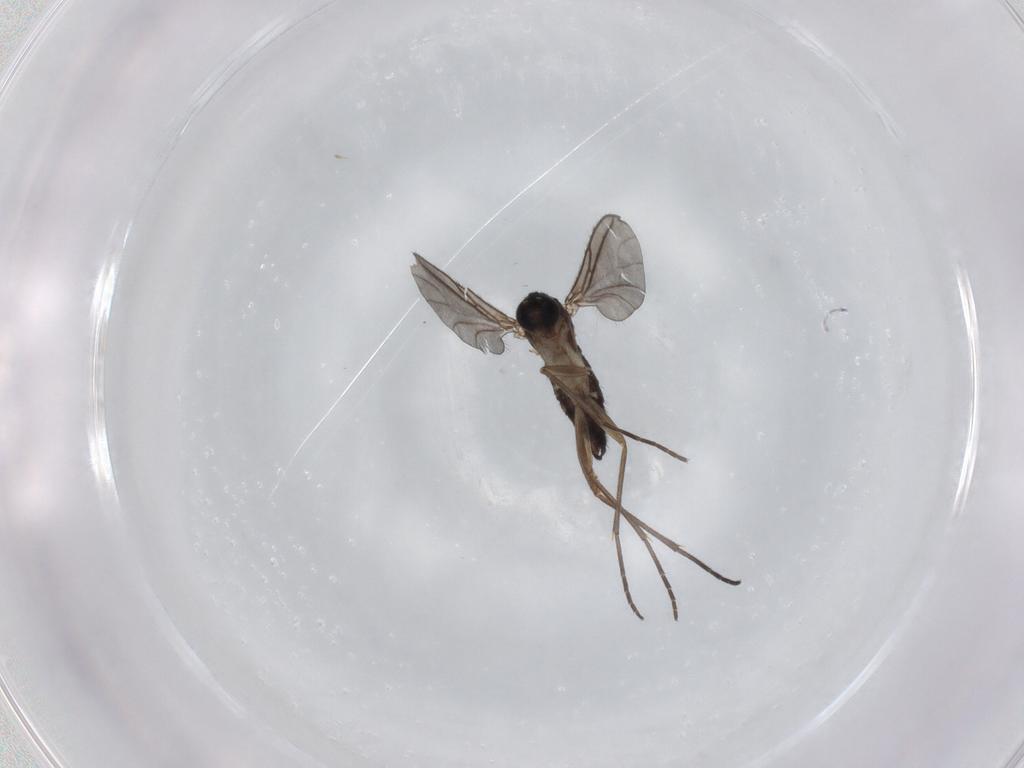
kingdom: Animalia
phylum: Arthropoda
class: Insecta
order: Diptera
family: Sciaridae
